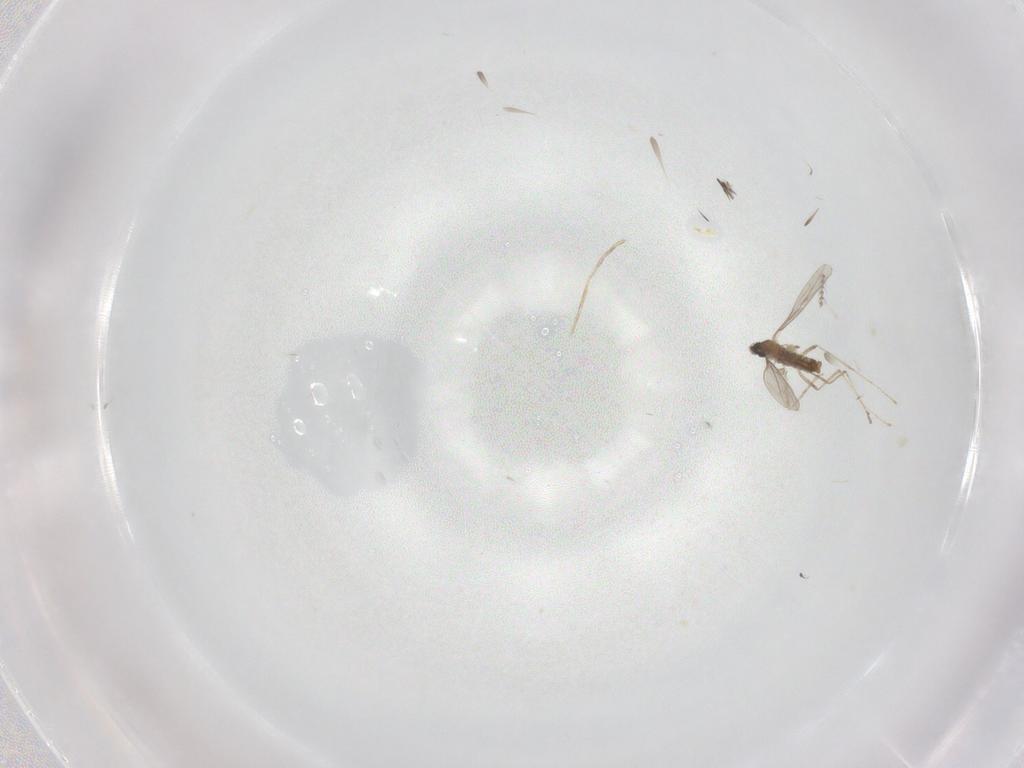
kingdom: Animalia
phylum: Arthropoda
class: Insecta
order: Diptera
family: Cecidomyiidae
